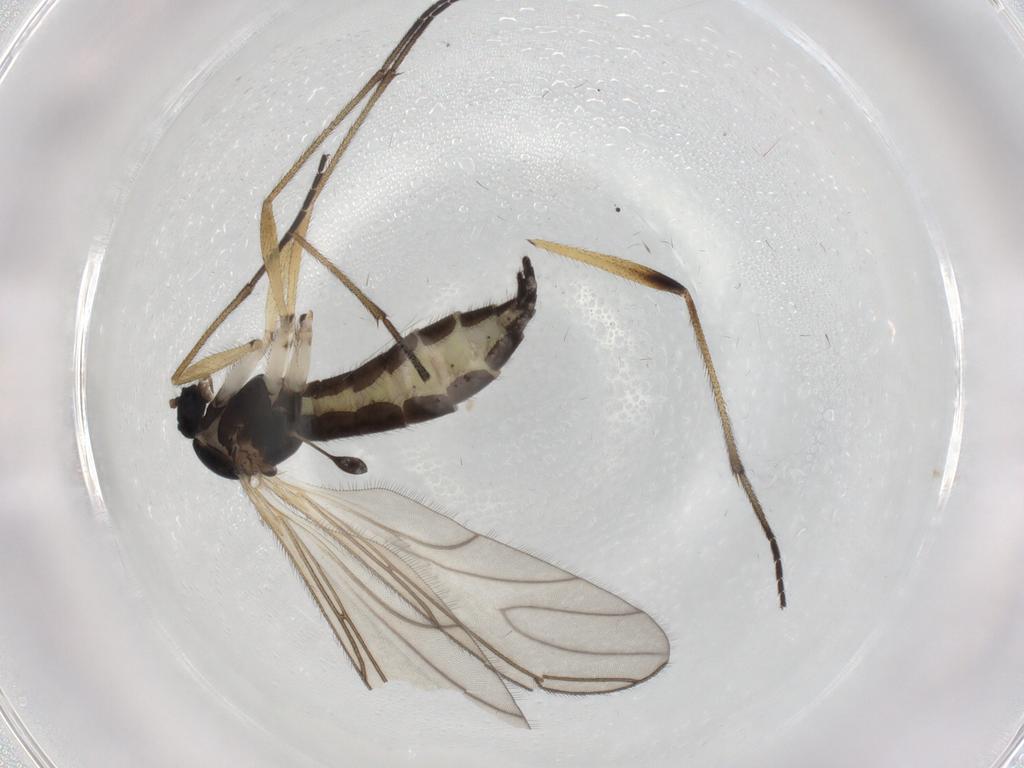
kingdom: Animalia
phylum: Arthropoda
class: Insecta
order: Diptera
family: Sciaridae
